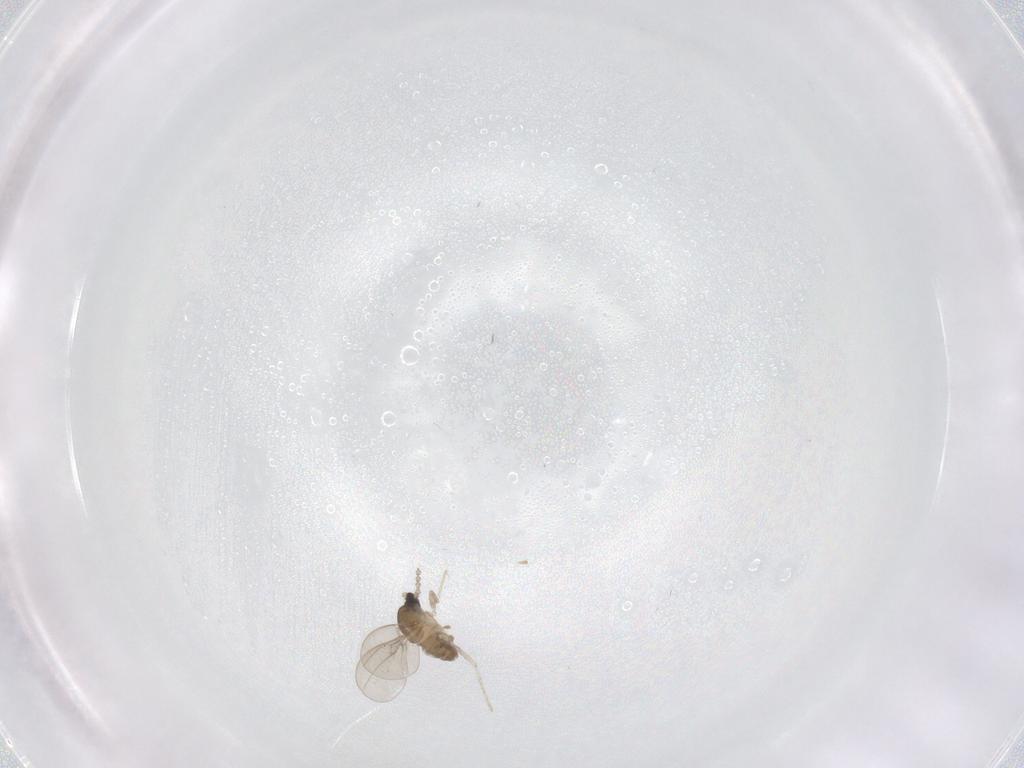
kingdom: Animalia
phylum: Arthropoda
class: Insecta
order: Diptera
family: Cecidomyiidae
